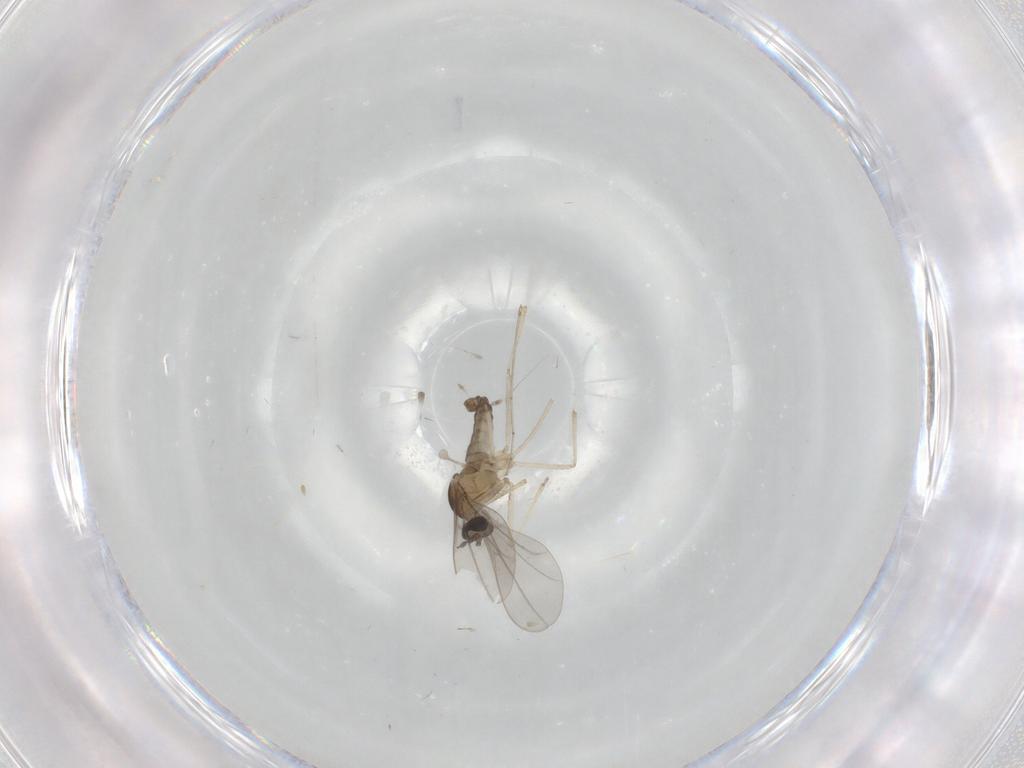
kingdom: Animalia
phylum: Arthropoda
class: Insecta
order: Diptera
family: Cecidomyiidae
